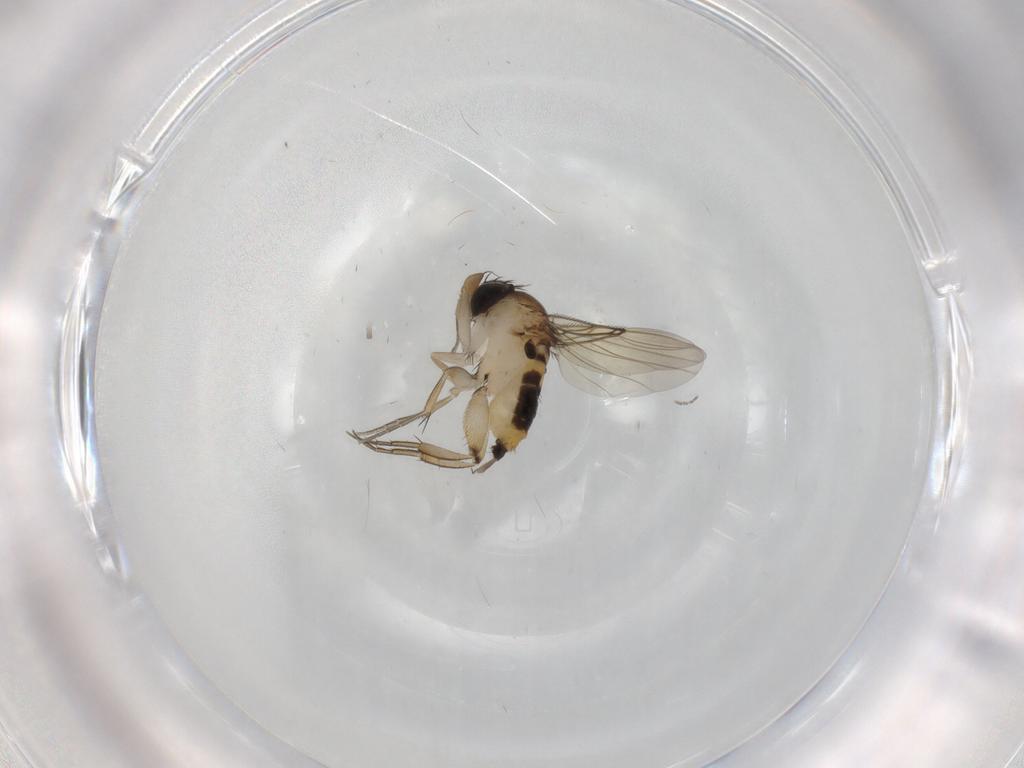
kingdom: Animalia
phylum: Arthropoda
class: Insecta
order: Diptera
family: Phoridae
